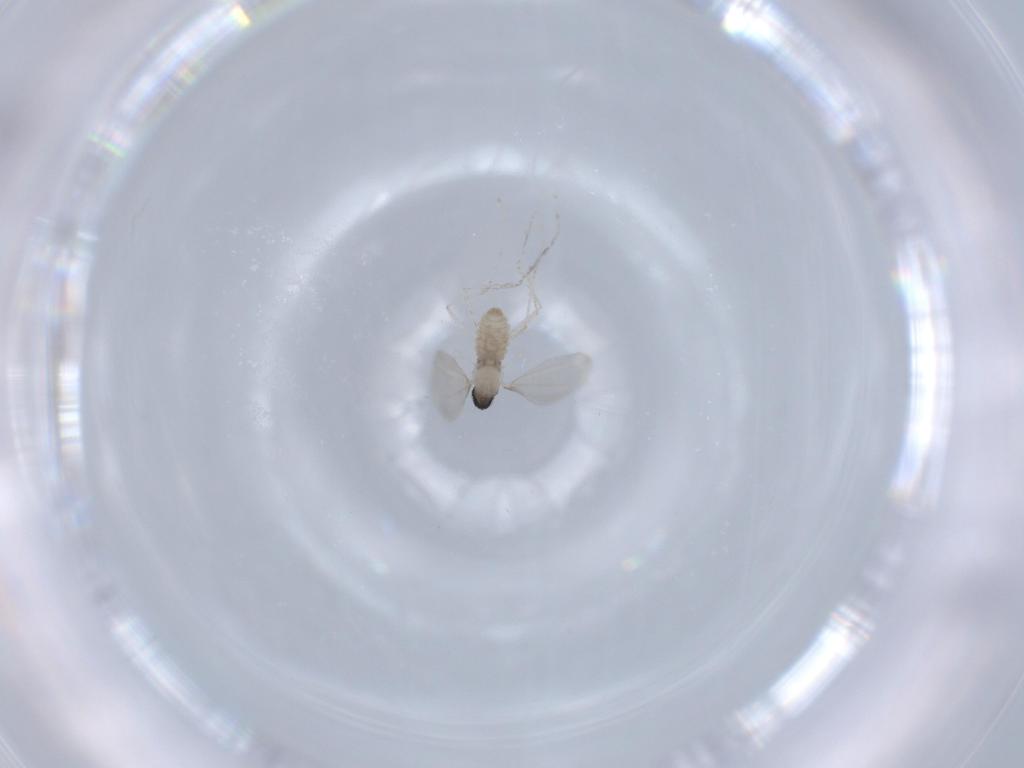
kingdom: Animalia
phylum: Arthropoda
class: Insecta
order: Diptera
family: Cecidomyiidae
